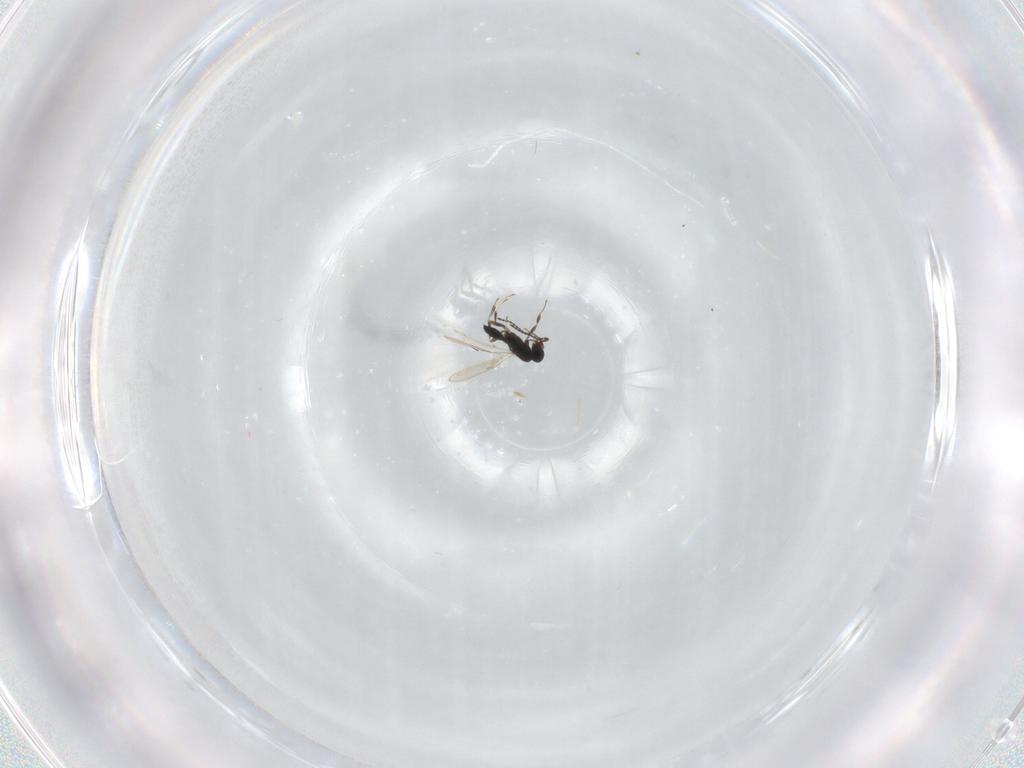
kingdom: Animalia
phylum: Arthropoda
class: Insecta
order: Hymenoptera
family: Scelionidae
